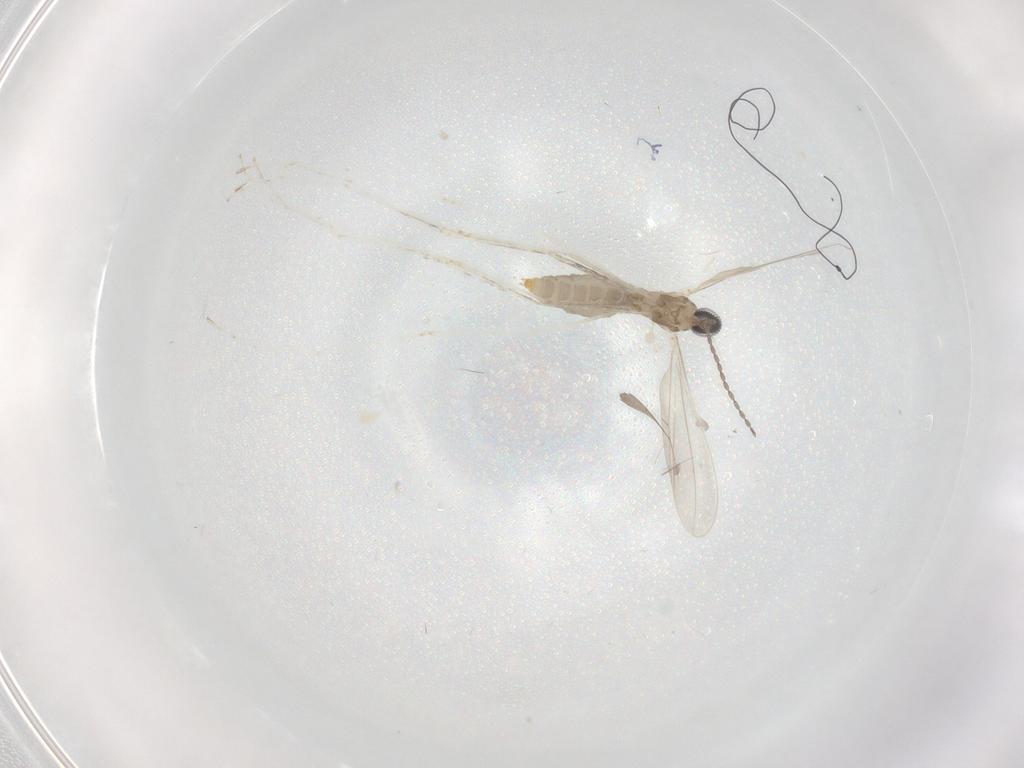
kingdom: Animalia
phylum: Arthropoda
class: Insecta
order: Diptera
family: Cecidomyiidae
